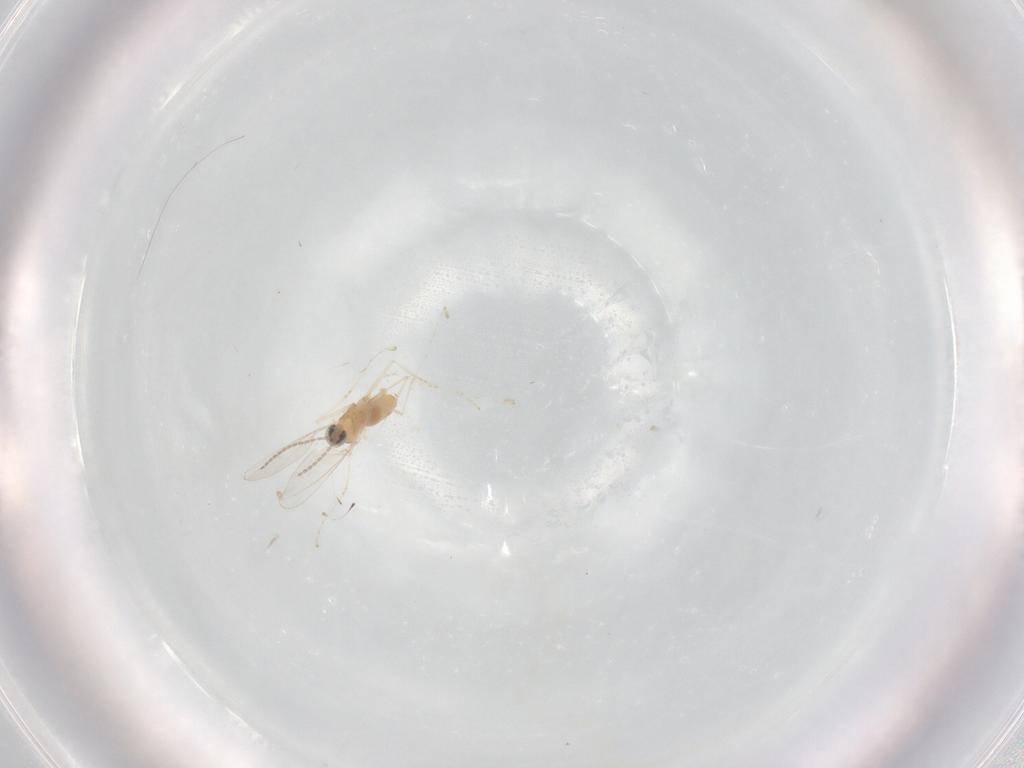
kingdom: Animalia
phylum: Arthropoda
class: Insecta
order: Diptera
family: Cecidomyiidae
